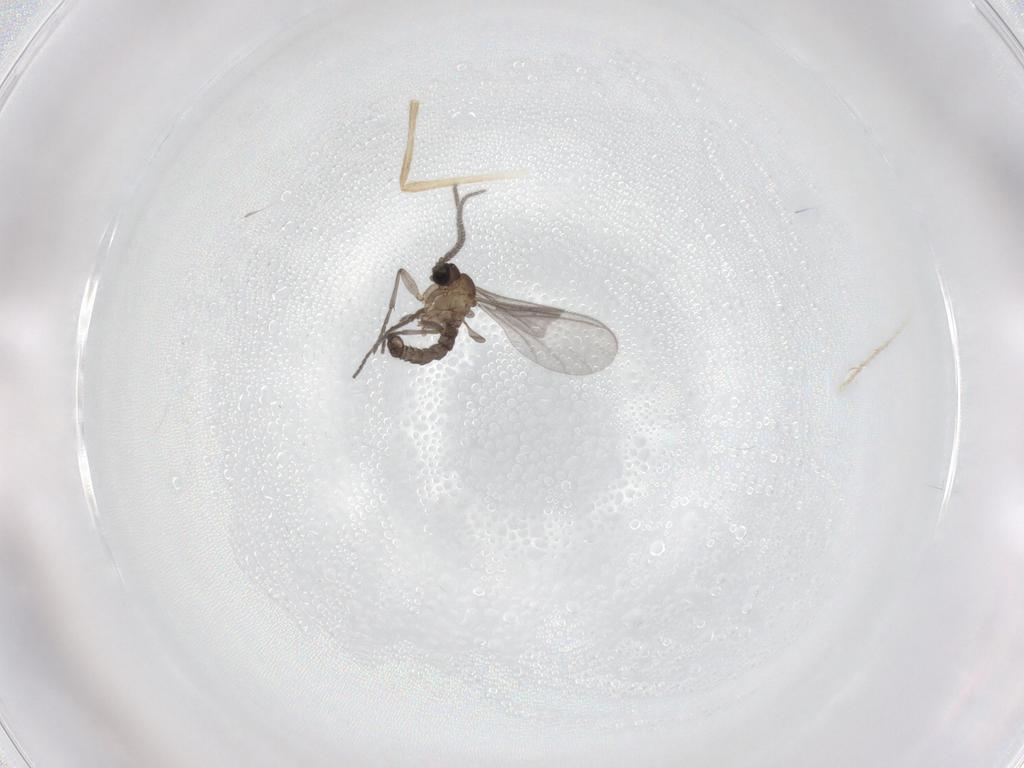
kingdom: Animalia
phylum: Arthropoda
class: Insecta
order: Diptera
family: Sciaridae
